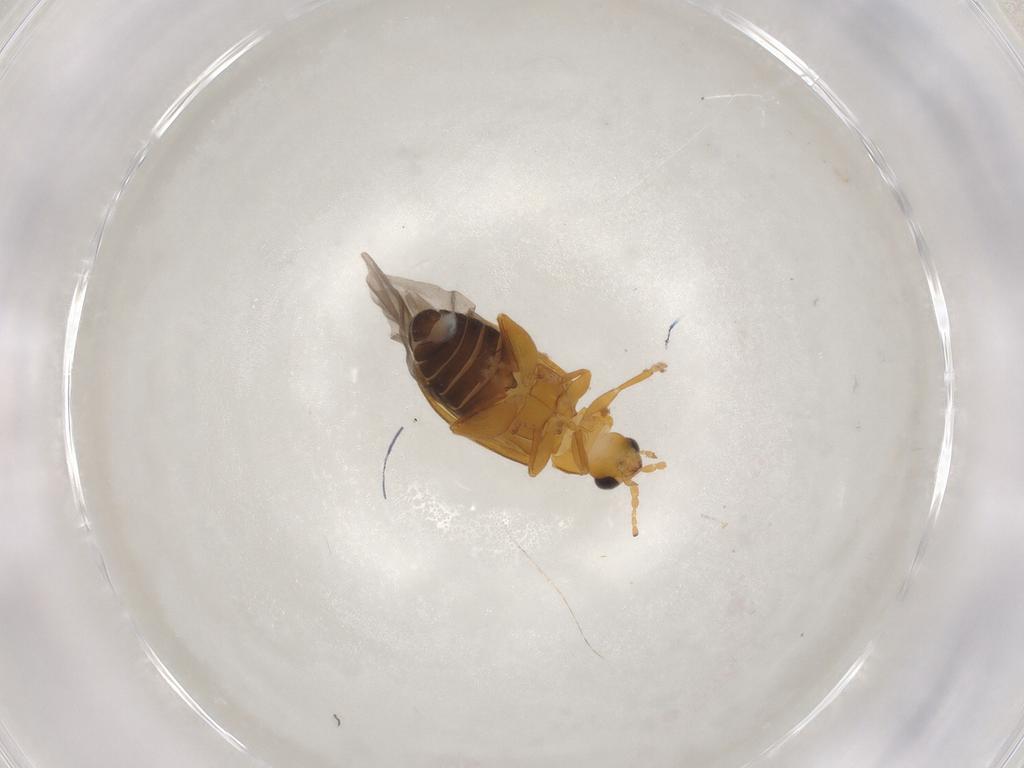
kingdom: Animalia
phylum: Arthropoda
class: Insecta
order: Coleoptera
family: Chrysomelidae
